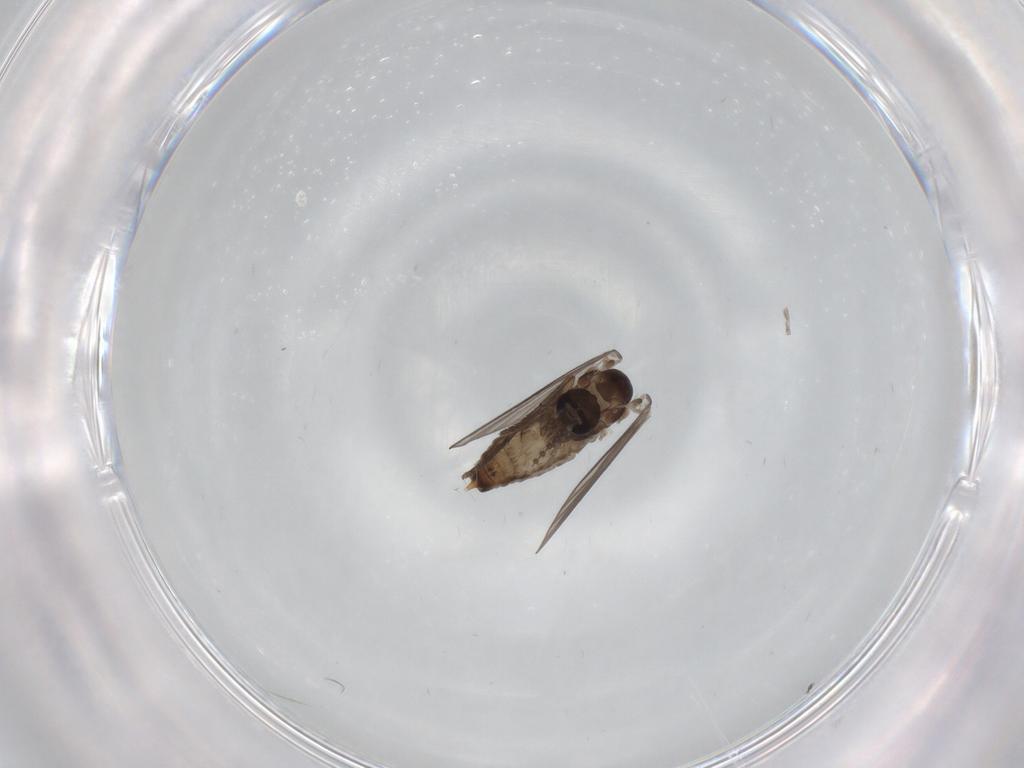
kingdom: Animalia
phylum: Arthropoda
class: Insecta
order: Diptera
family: Psychodidae
